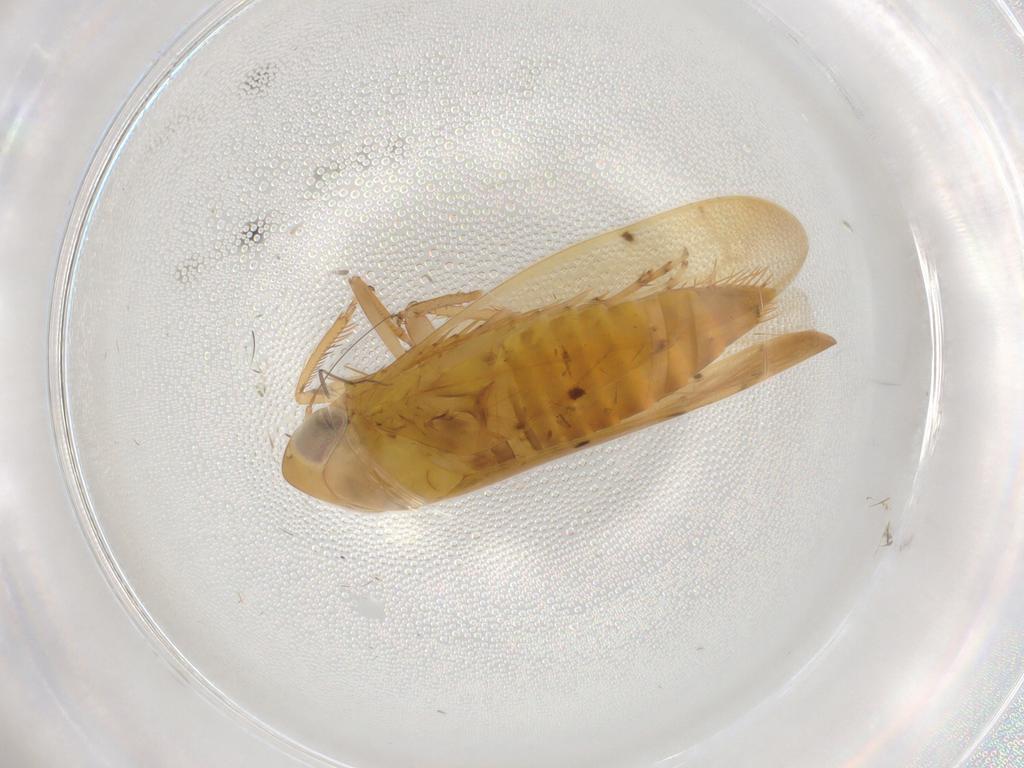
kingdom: Animalia
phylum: Arthropoda
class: Insecta
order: Hemiptera
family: Cicadellidae
